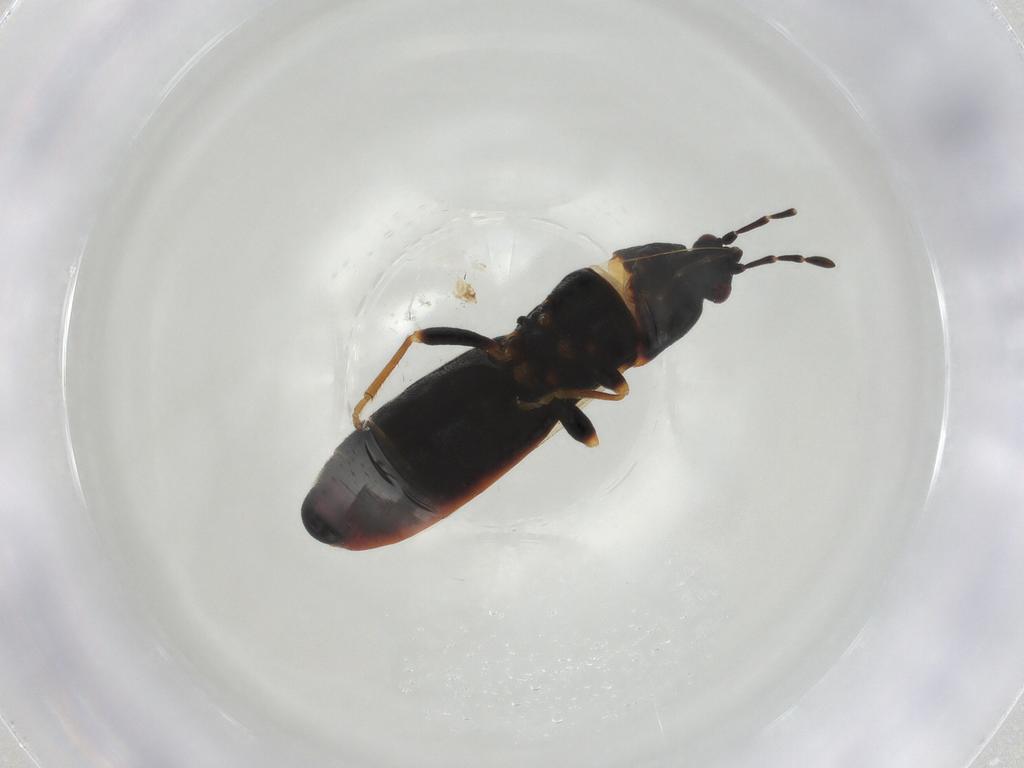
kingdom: Animalia
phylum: Arthropoda
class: Insecta
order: Hemiptera
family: Blissidae
